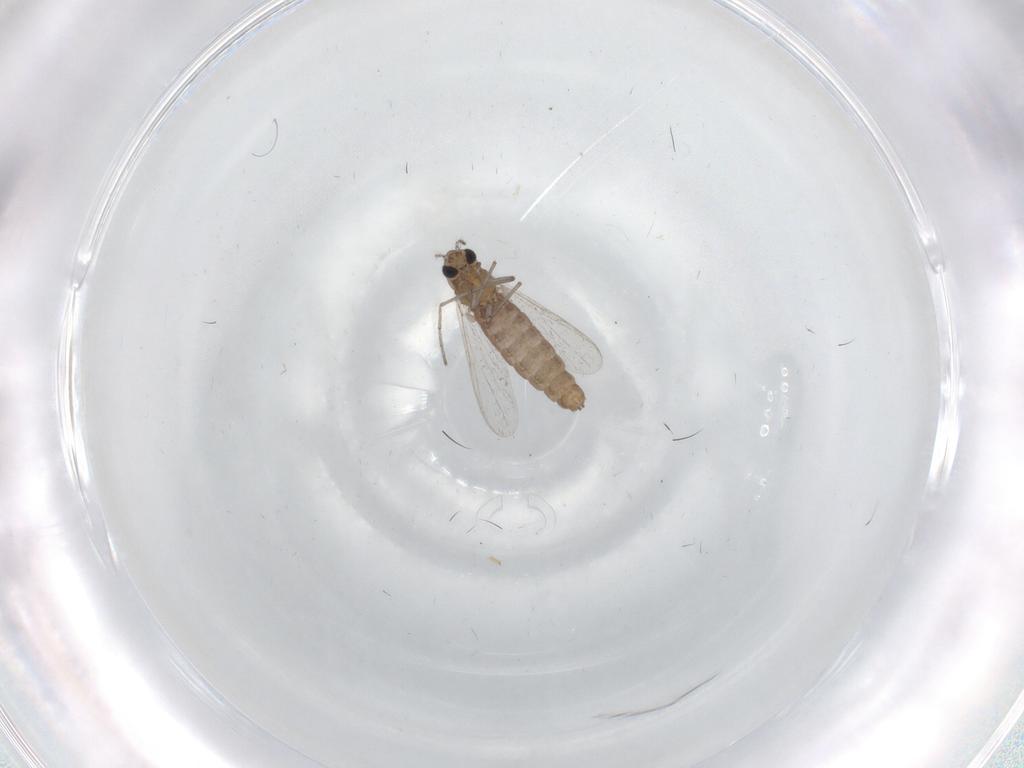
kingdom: Animalia
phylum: Arthropoda
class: Insecta
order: Diptera
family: Chironomidae
